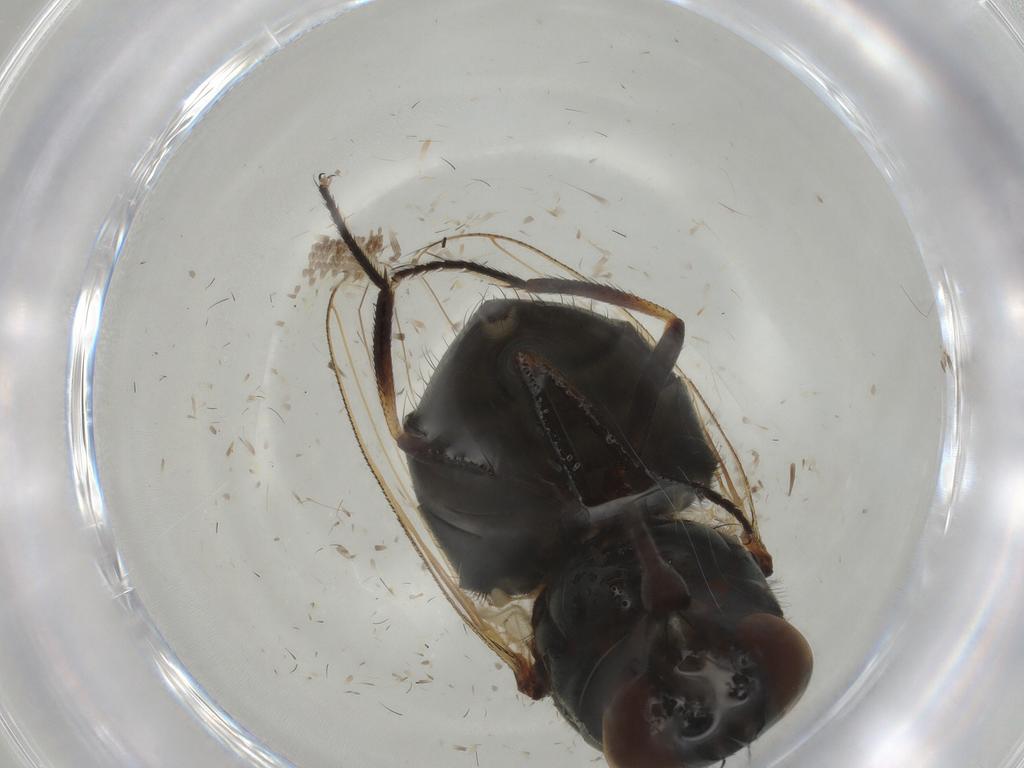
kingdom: Animalia
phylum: Arthropoda
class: Insecta
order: Diptera
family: Muscidae
